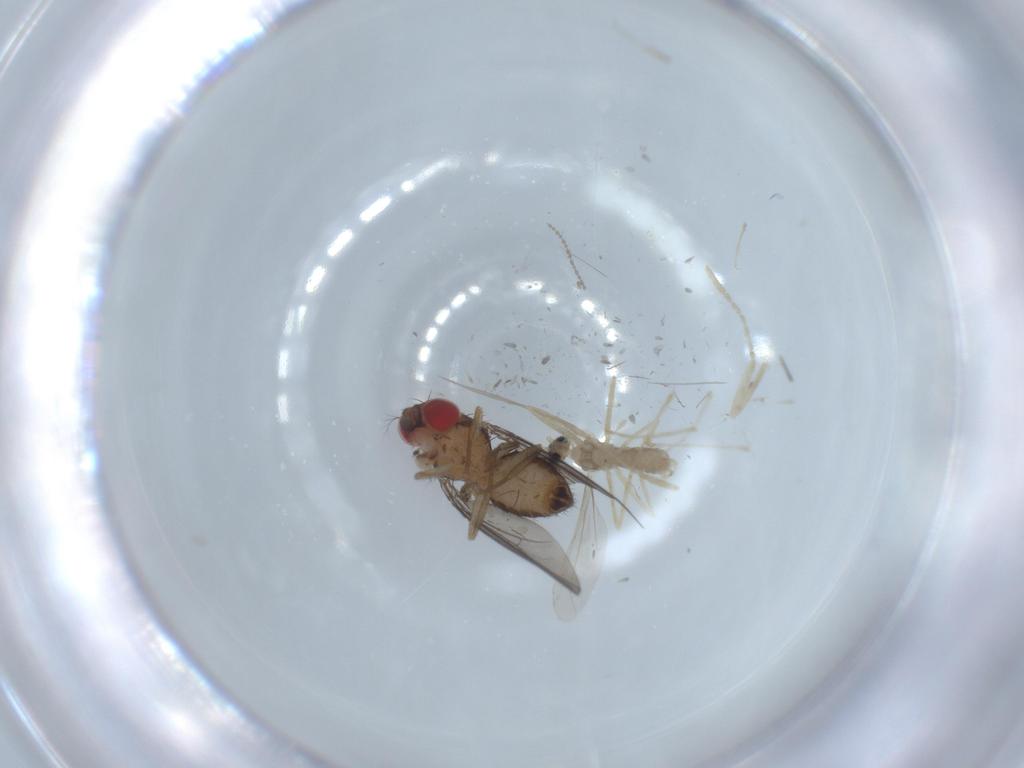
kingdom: Animalia
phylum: Arthropoda
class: Insecta
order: Diptera
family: Drosophilidae
